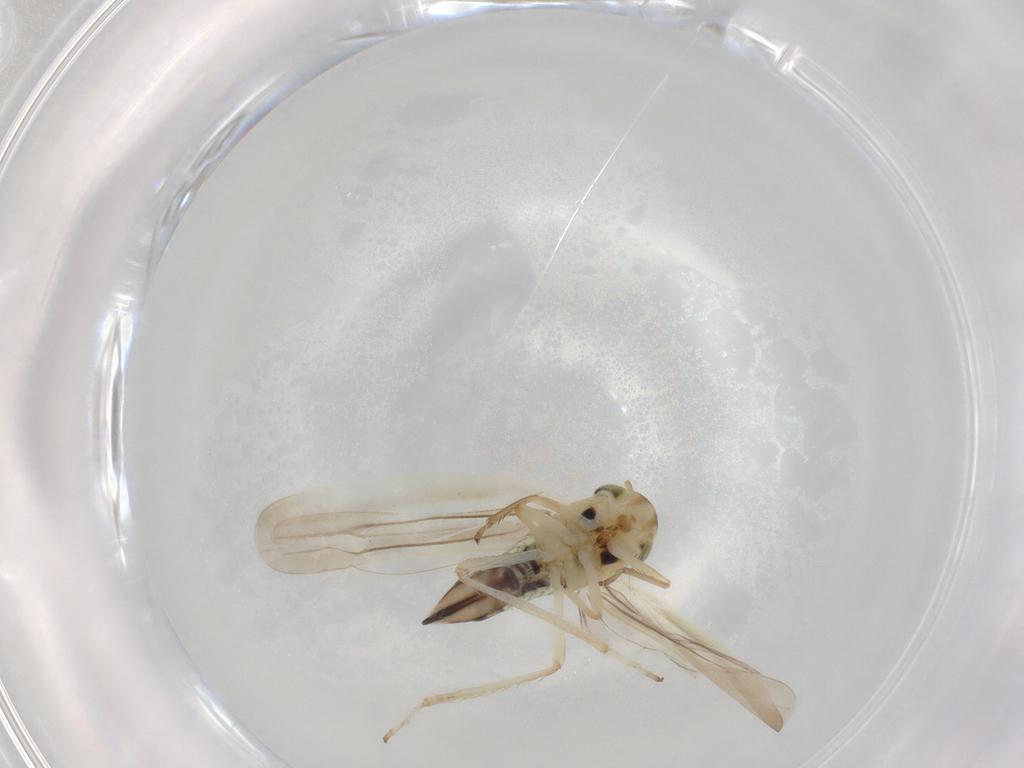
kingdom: Animalia
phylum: Arthropoda
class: Insecta
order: Hemiptera
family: Cicadellidae
